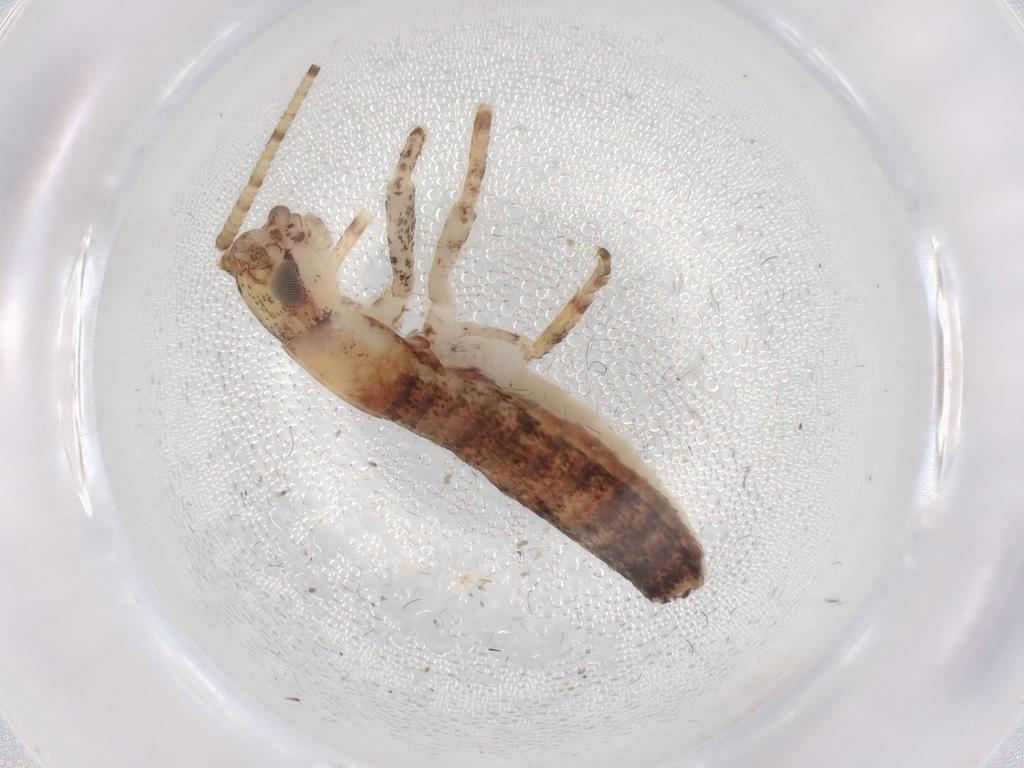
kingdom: Animalia
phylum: Arthropoda
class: Insecta
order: Orthoptera
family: Mogoplistidae
